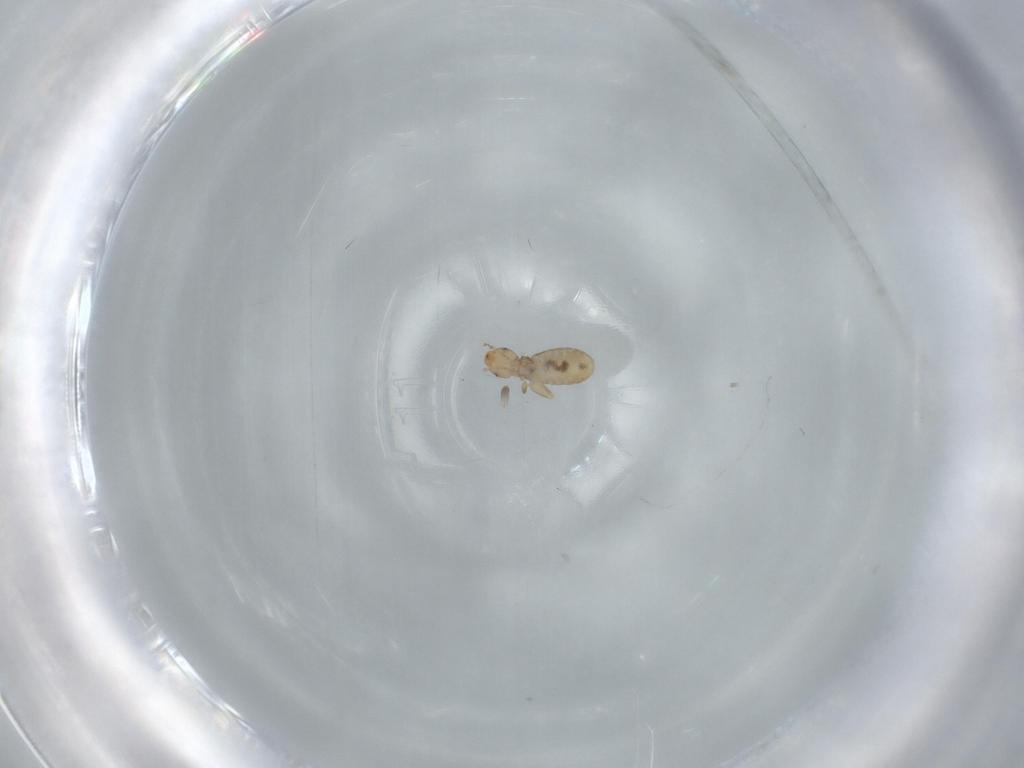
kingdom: Animalia
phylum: Arthropoda
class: Insecta
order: Psocodea
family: Liposcelididae
